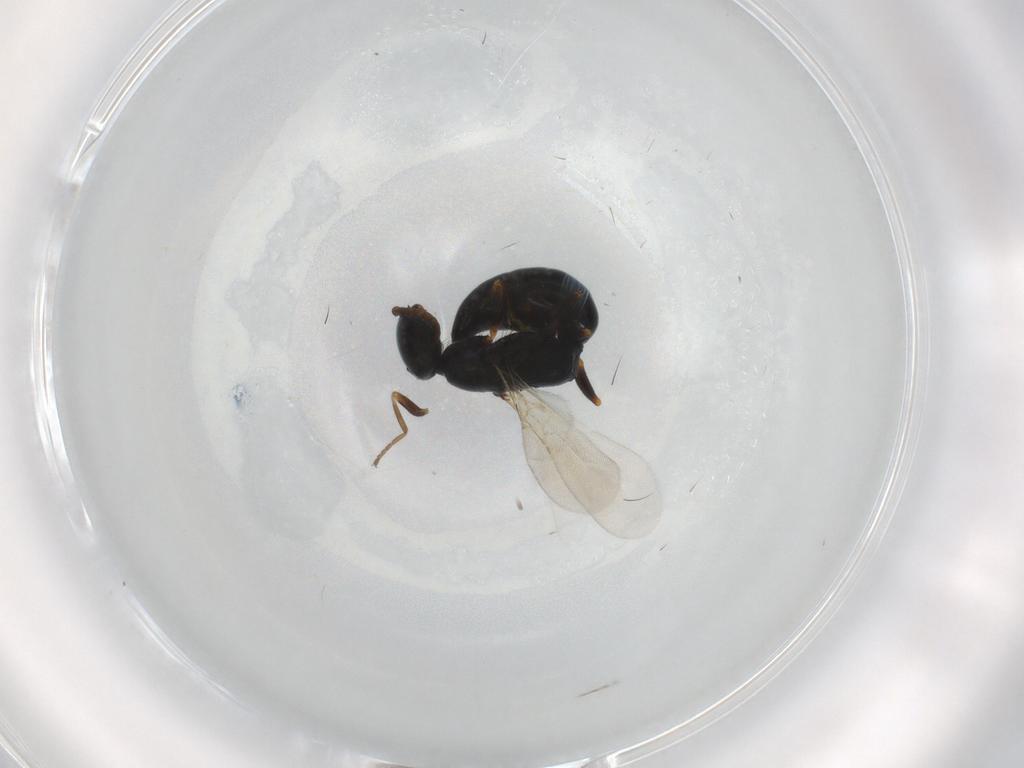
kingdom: Animalia
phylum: Arthropoda
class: Insecta
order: Hymenoptera
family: Bethylidae
